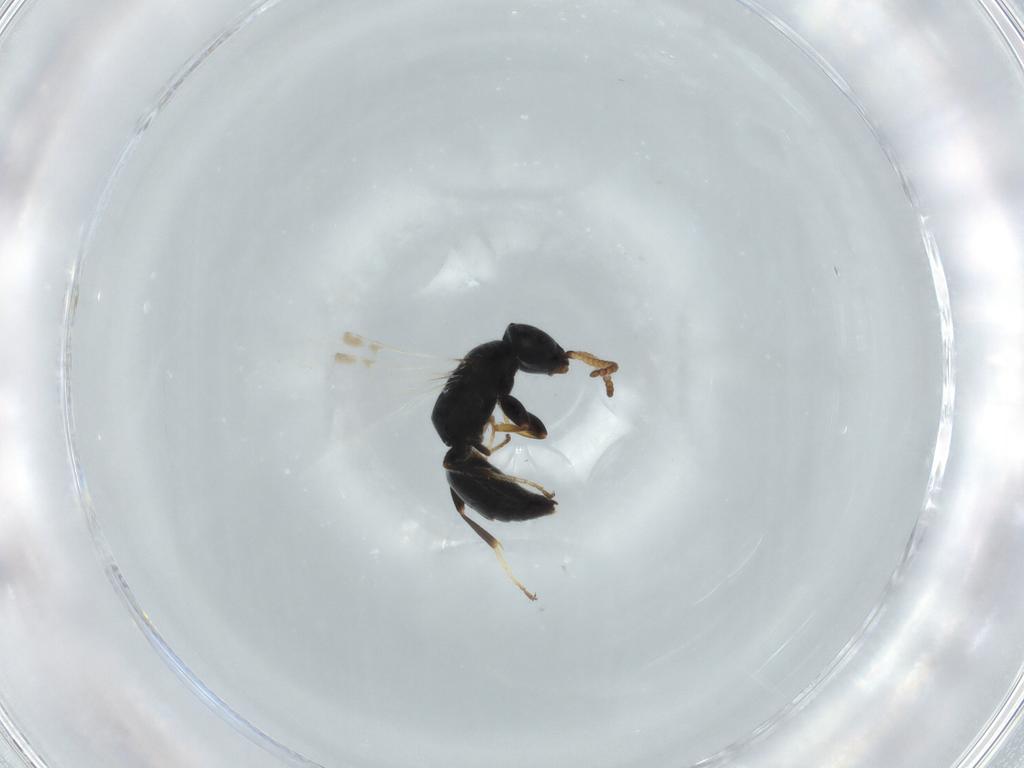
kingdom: Animalia
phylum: Arthropoda
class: Insecta
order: Hymenoptera
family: Bethylidae
